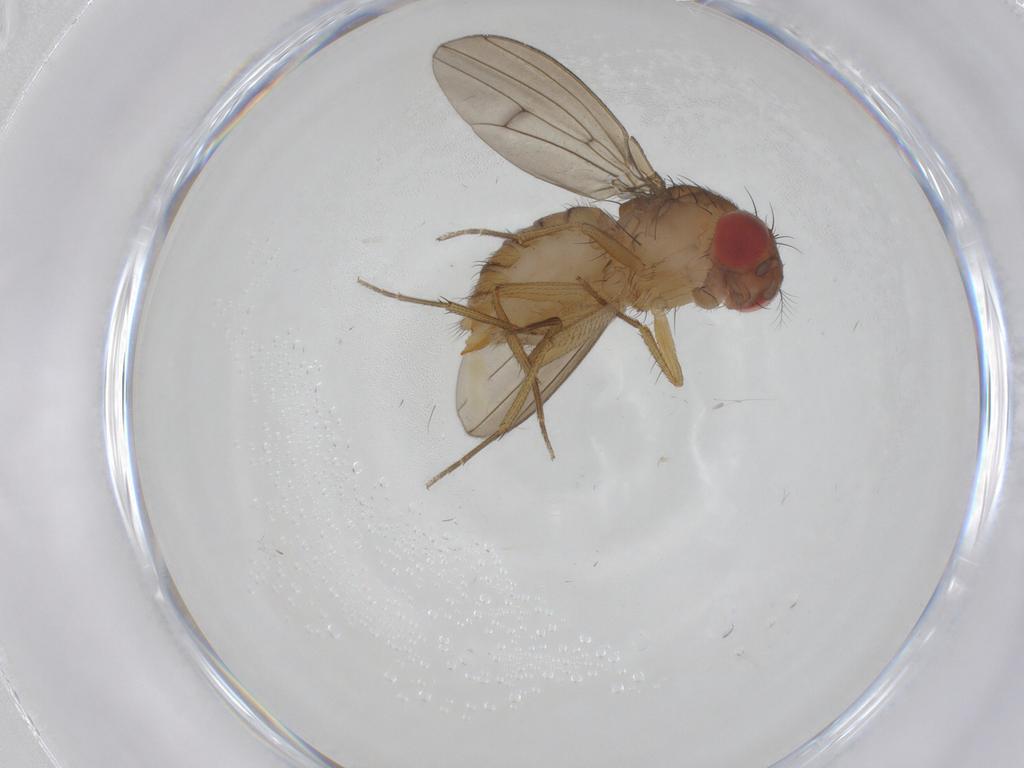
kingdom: Animalia
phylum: Arthropoda
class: Insecta
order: Diptera
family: Drosophilidae
